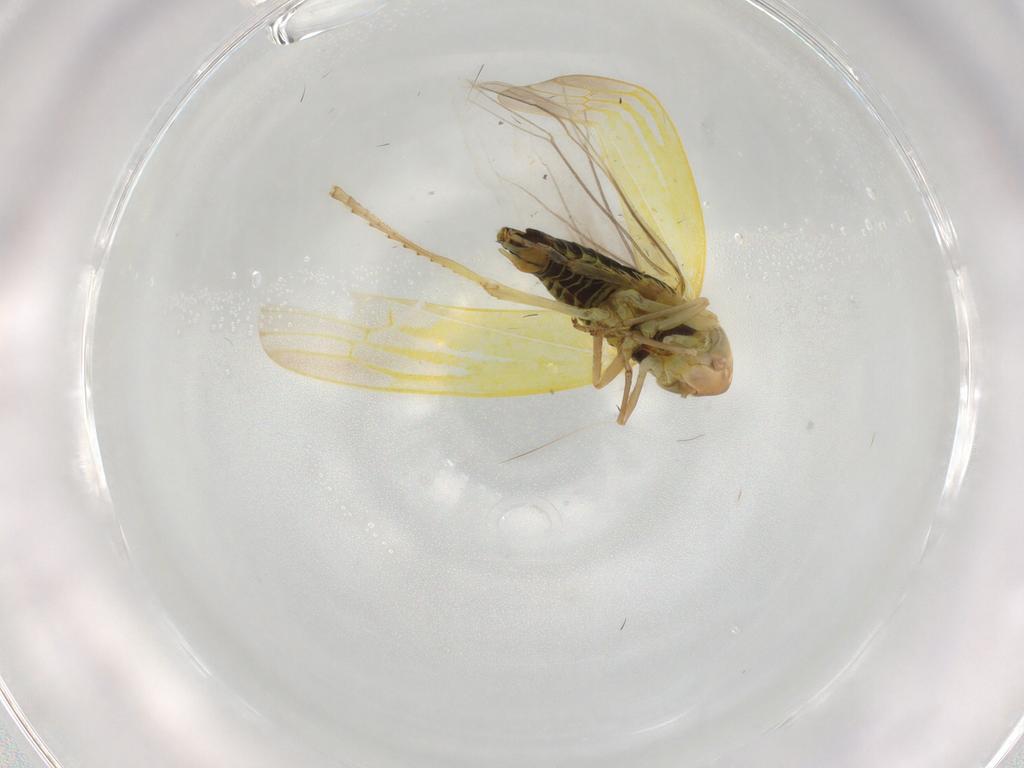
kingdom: Animalia
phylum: Arthropoda
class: Insecta
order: Hemiptera
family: Cicadellidae
